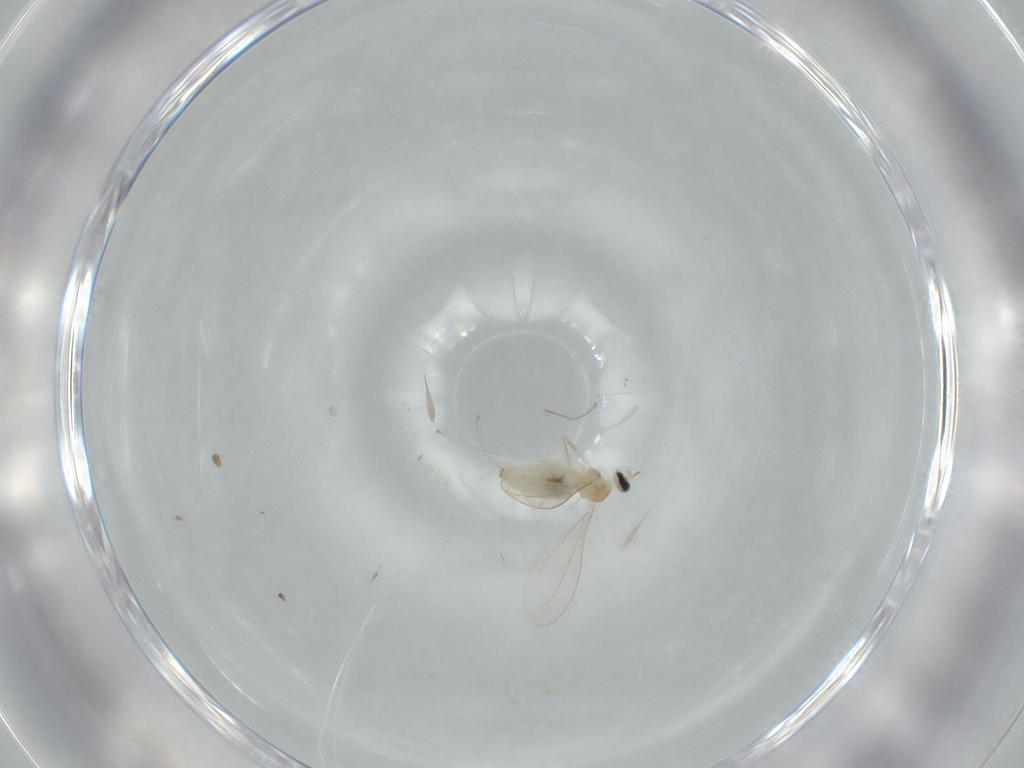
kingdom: Animalia
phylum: Arthropoda
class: Insecta
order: Diptera
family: Cecidomyiidae
